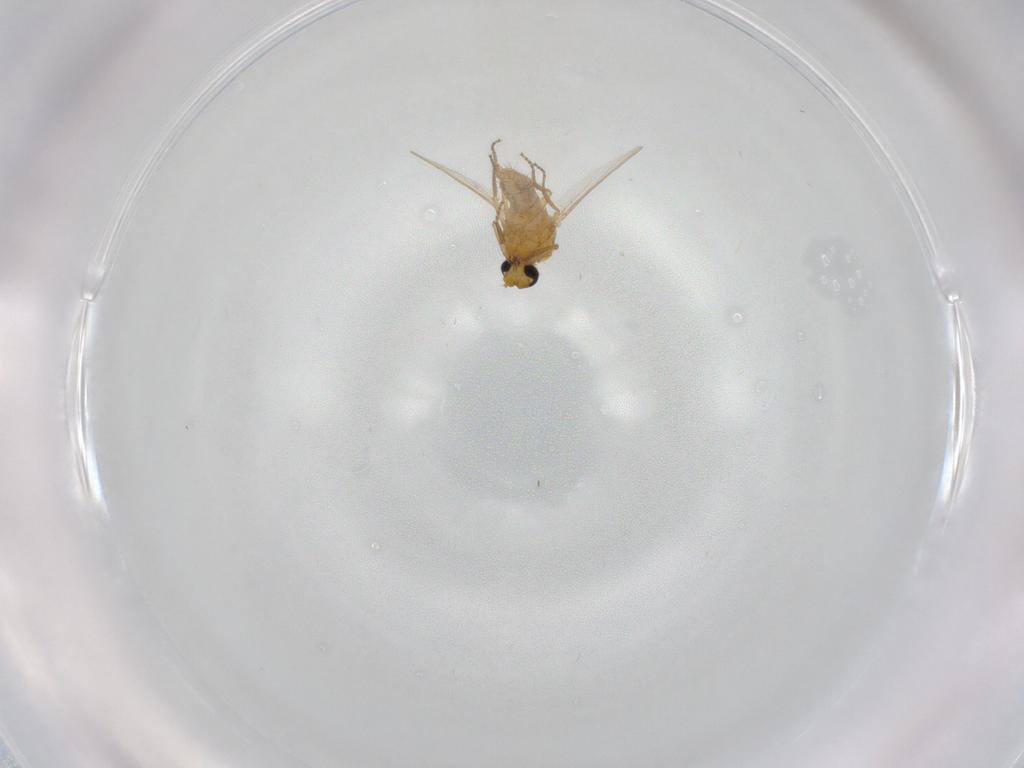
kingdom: Animalia
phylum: Arthropoda
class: Insecta
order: Diptera
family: Ceratopogonidae
